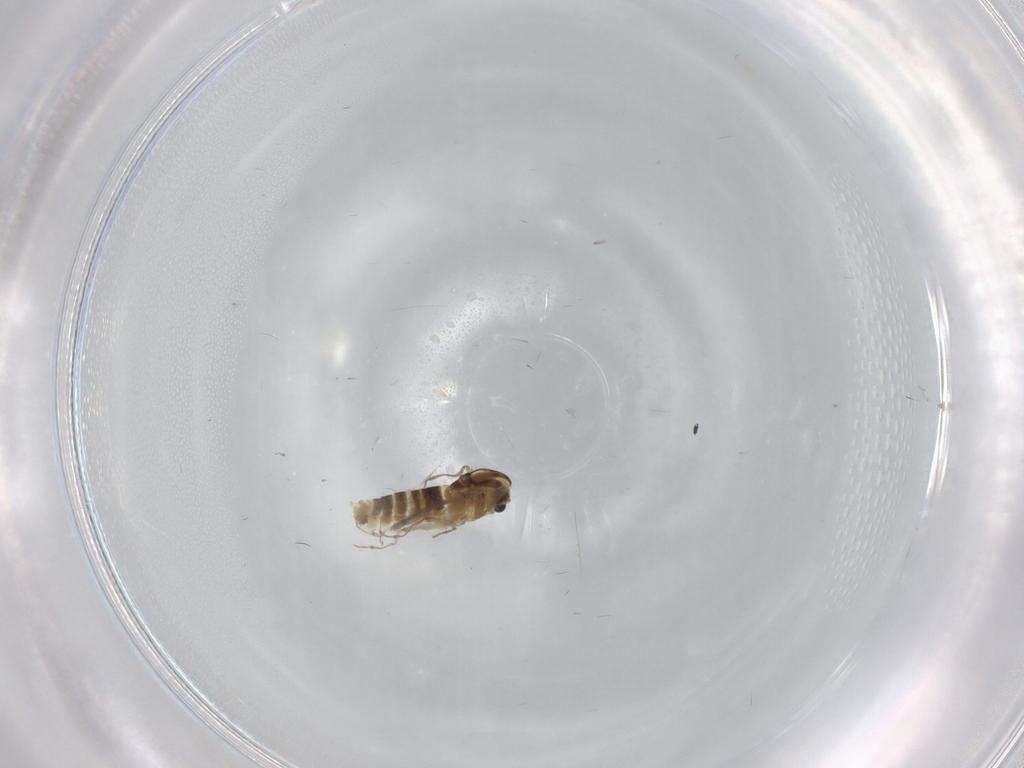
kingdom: Animalia
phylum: Arthropoda
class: Insecta
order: Diptera
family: Cecidomyiidae
